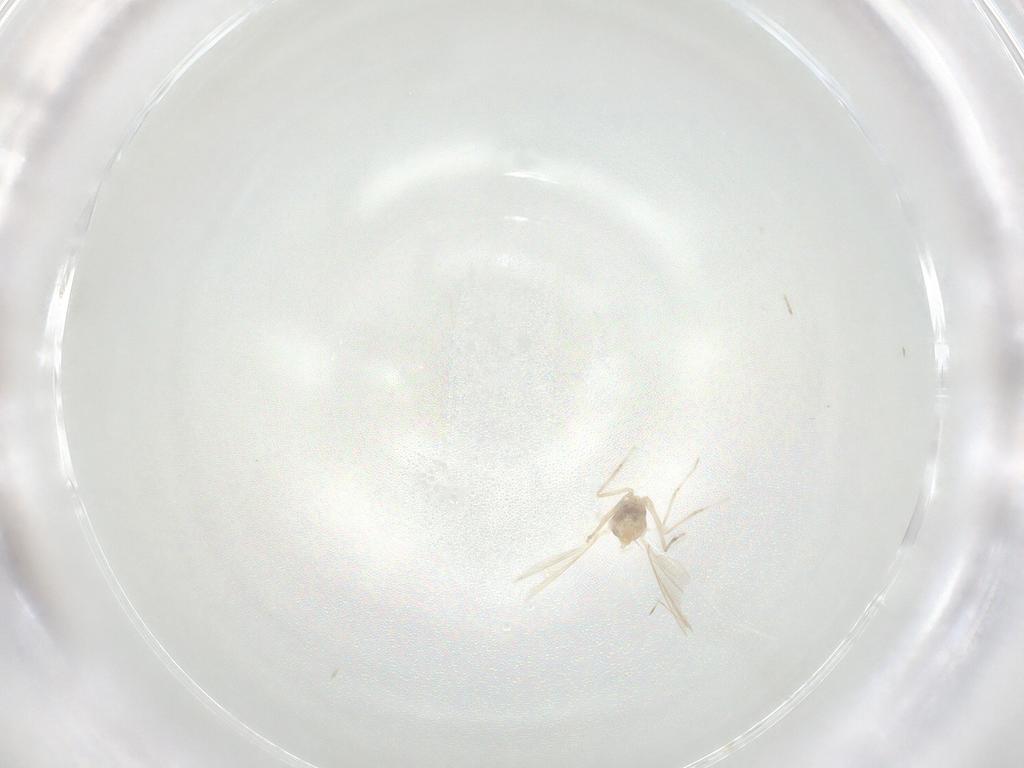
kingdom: Animalia
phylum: Arthropoda
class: Insecta
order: Diptera
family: Cecidomyiidae
